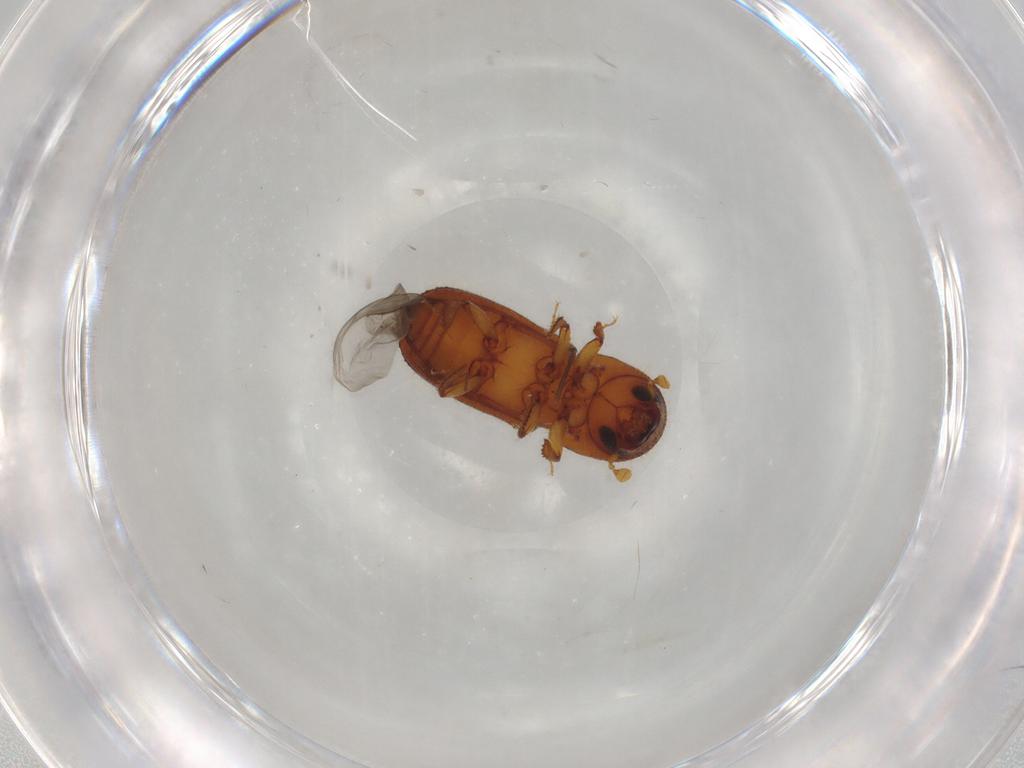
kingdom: Animalia
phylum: Arthropoda
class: Insecta
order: Coleoptera
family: Curculionidae
